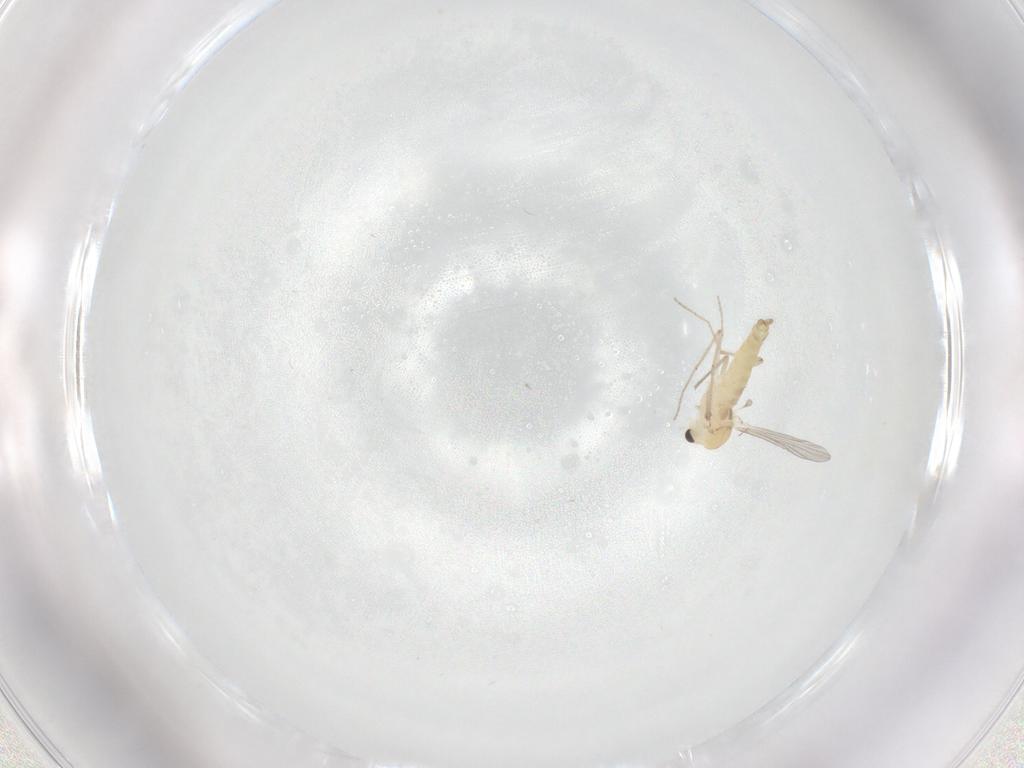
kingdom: Animalia
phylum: Arthropoda
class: Insecta
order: Diptera
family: Chironomidae
